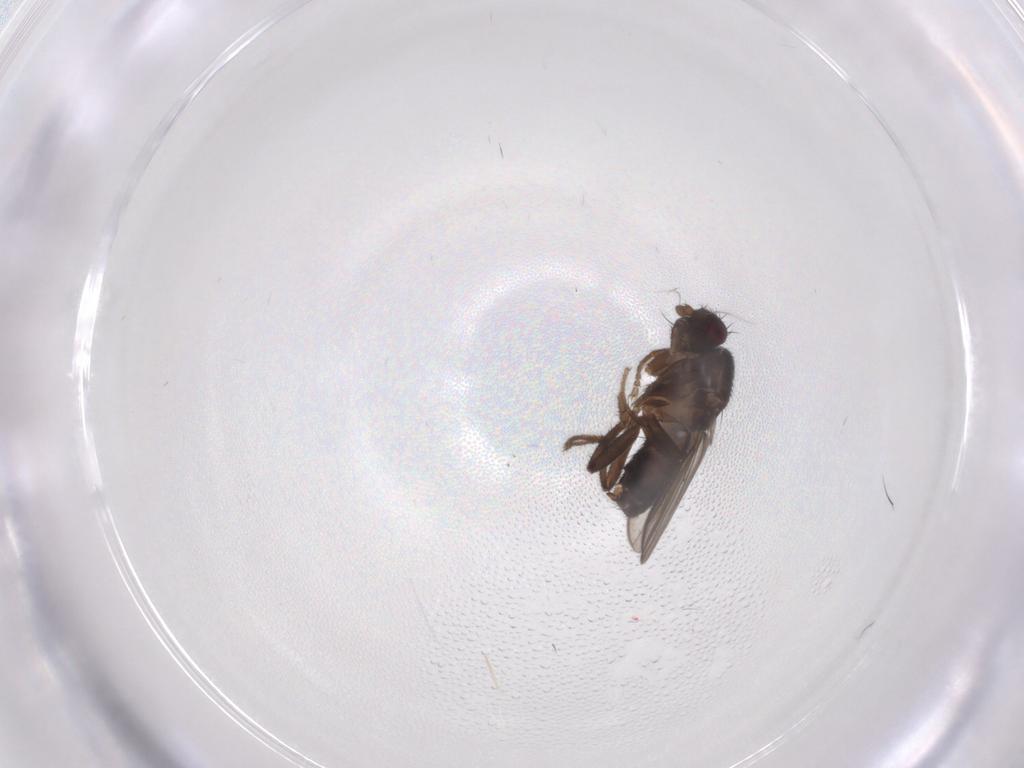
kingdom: Animalia
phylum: Arthropoda
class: Insecta
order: Diptera
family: Sphaeroceridae
